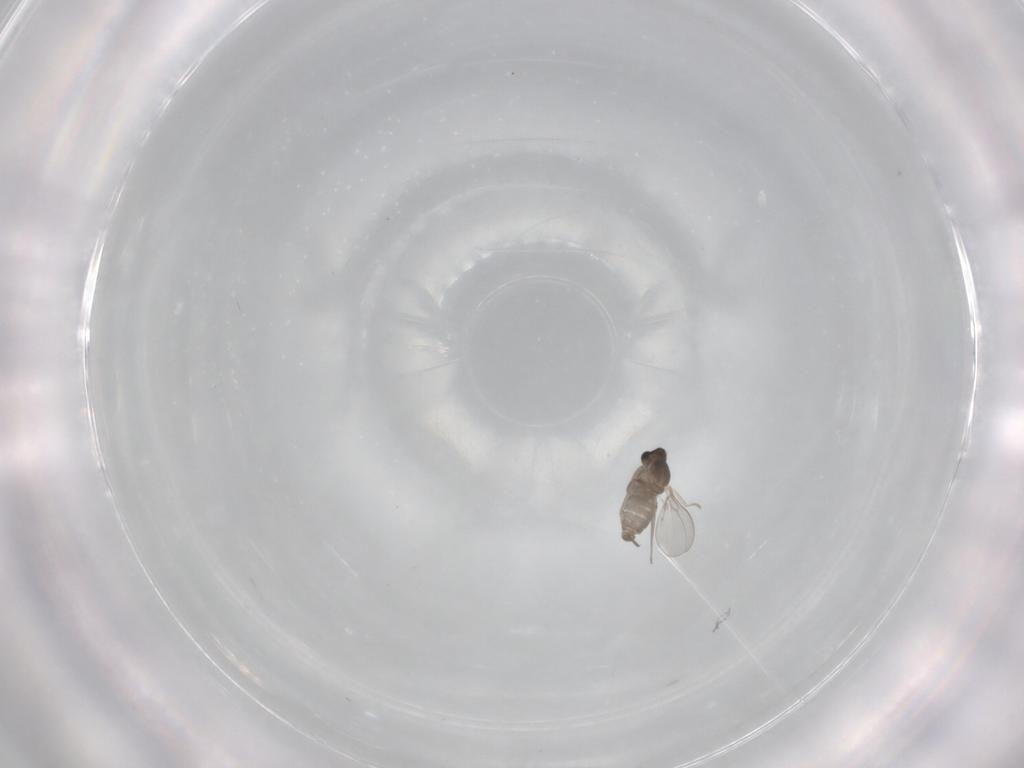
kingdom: Animalia
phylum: Arthropoda
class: Insecta
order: Diptera
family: Cecidomyiidae
